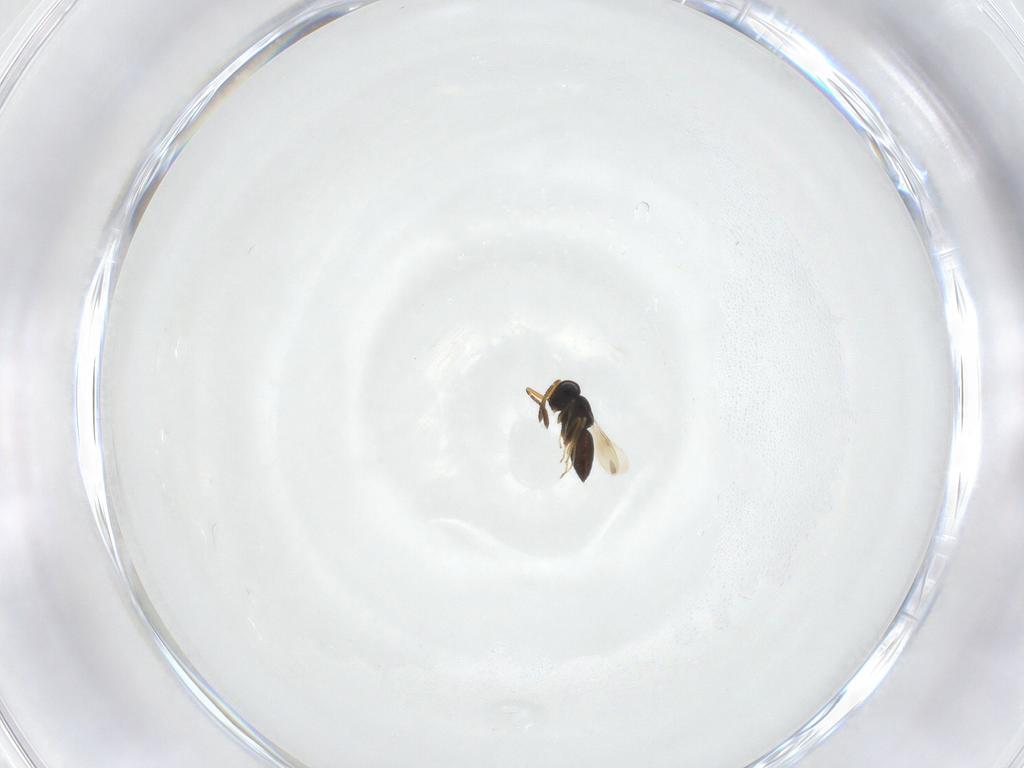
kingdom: Animalia
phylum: Arthropoda
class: Insecta
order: Hymenoptera
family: Scelionidae
